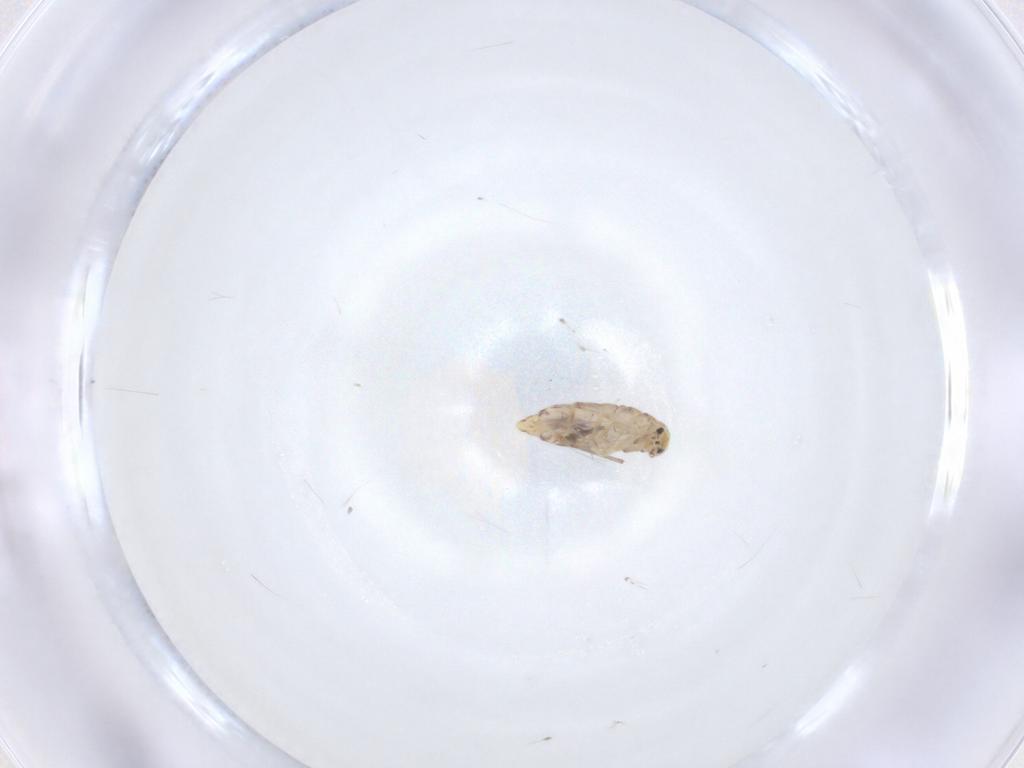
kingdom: Animalia
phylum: Arthropoda
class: Collembola
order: Entomobryomorpha
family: Entomobryidae
